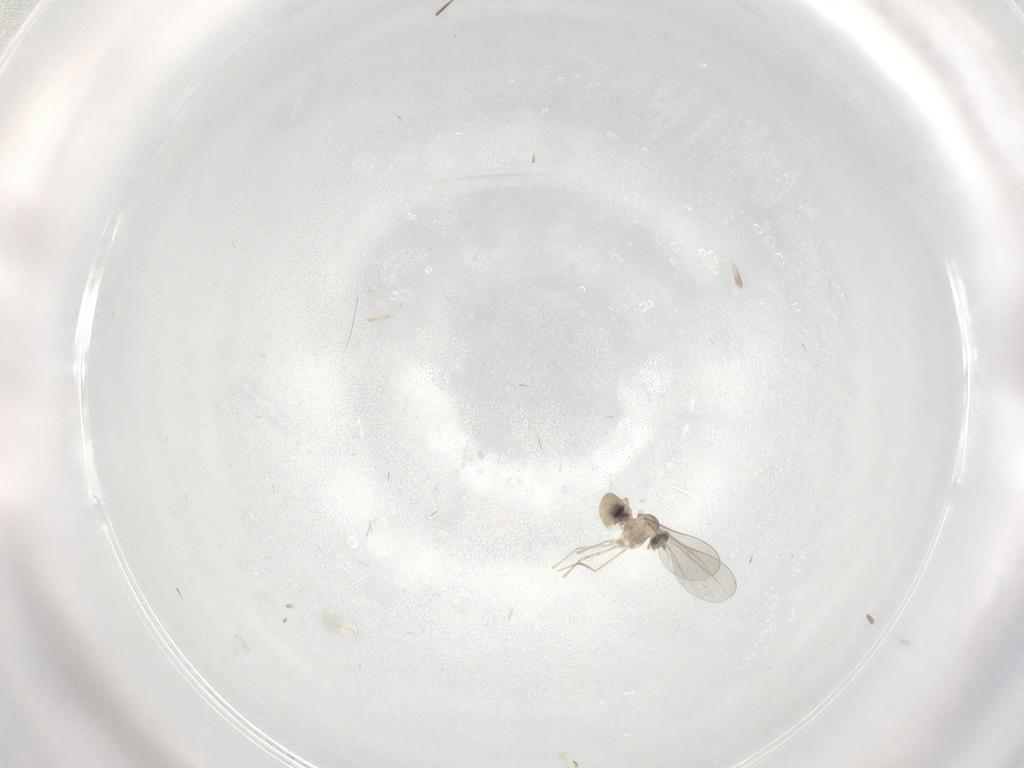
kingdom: Animalia
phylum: Arthropoda
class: Insecta
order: Diptera
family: Cecidomyiidae
